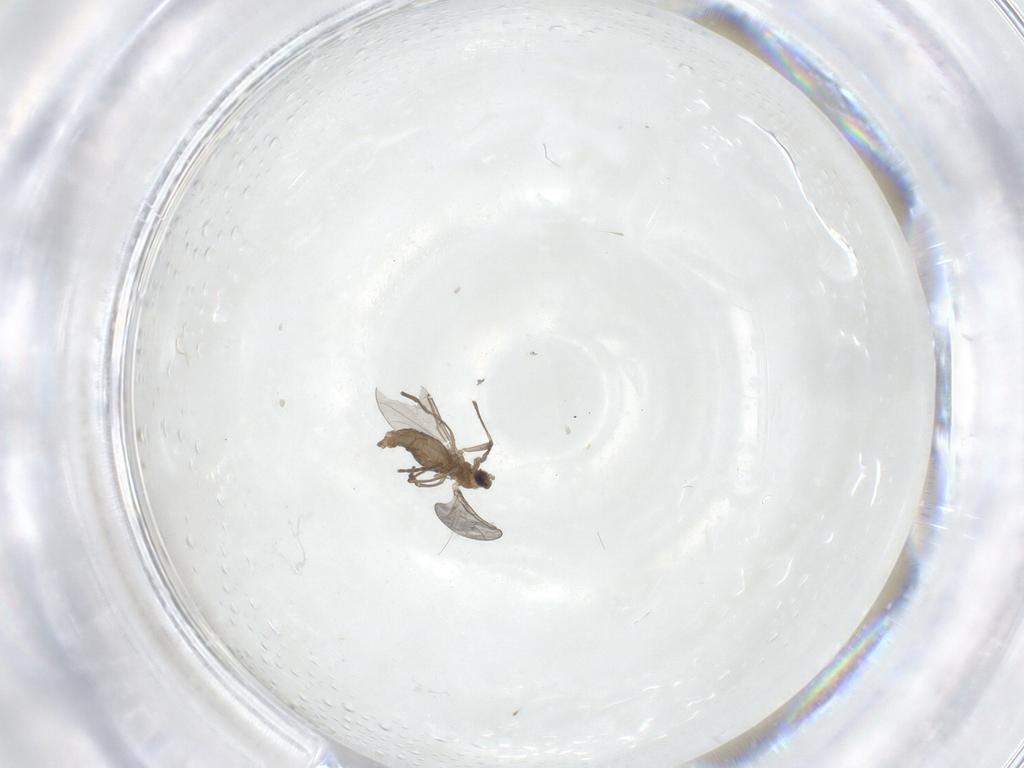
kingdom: Animalia
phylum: Arthropoda
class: Insecta
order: Diptera
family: Cecidomyiidae
